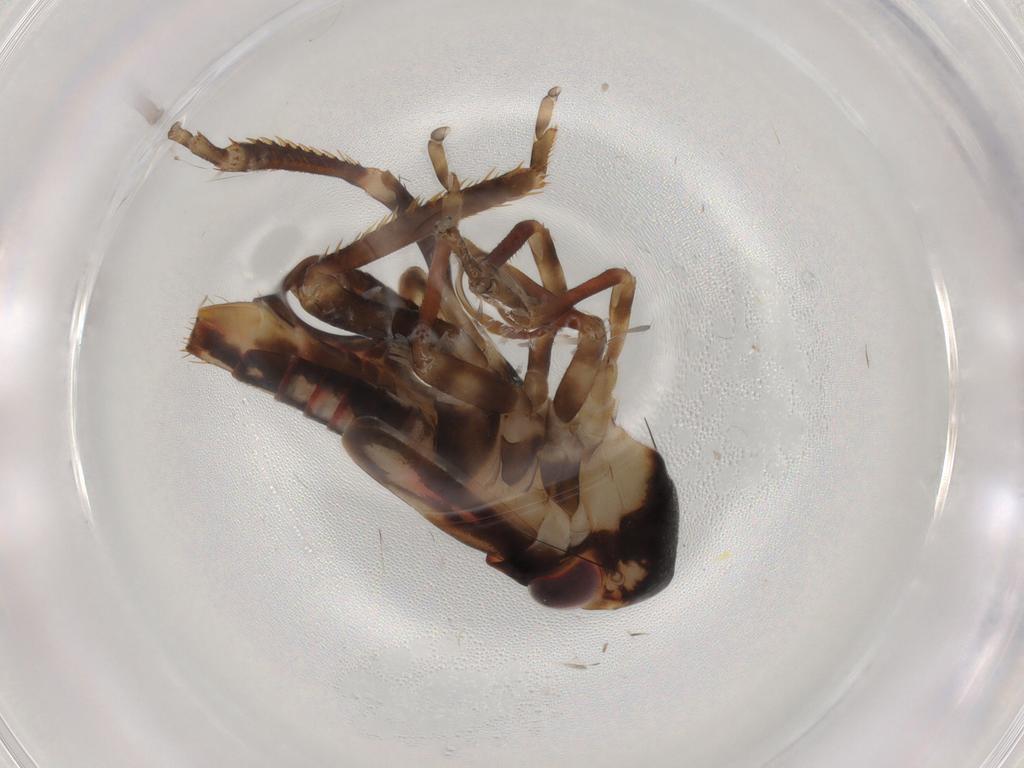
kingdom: Animalia
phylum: Arthropoda
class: Insecta
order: Hemiptera
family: Cicadellidae
